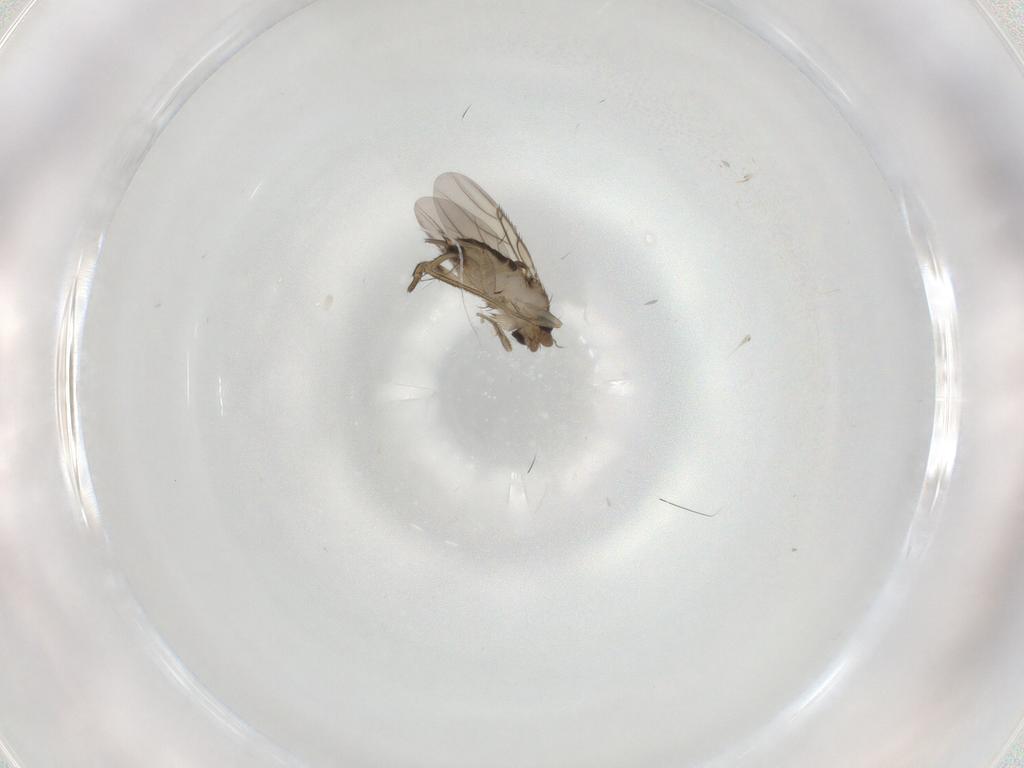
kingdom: Animalia
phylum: Arthropoda
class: Insecta
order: Diptera
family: Phoridae
